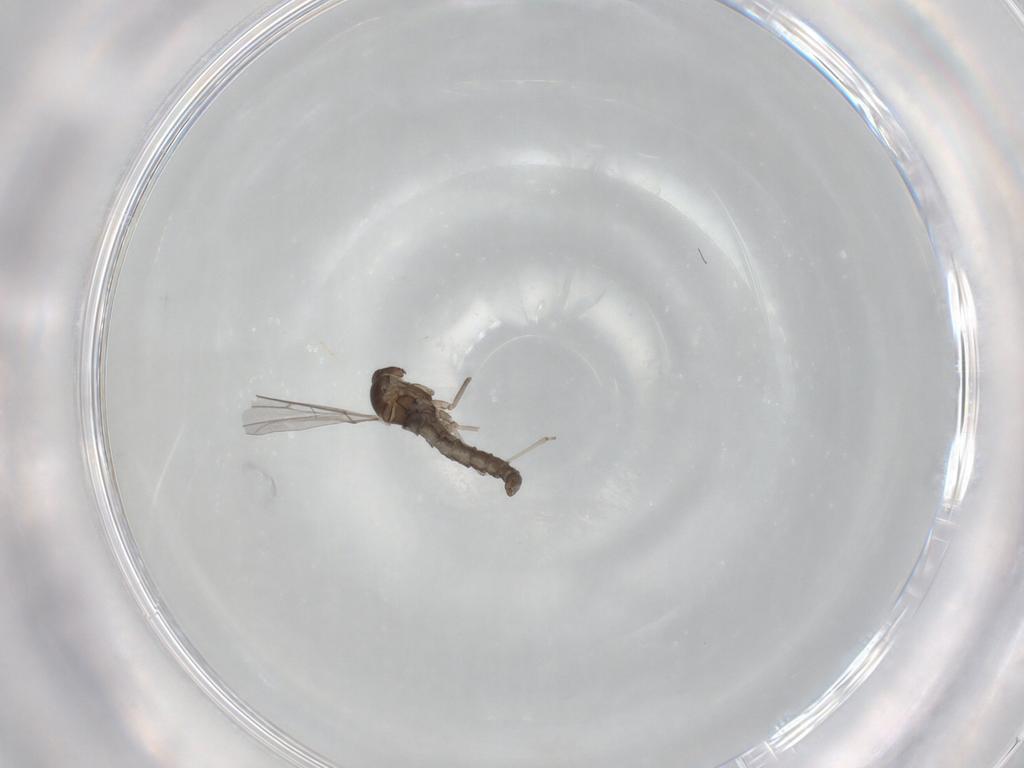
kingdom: Animalia
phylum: Arthropoda
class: Insecta
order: Diptera
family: Cecidomyiidae
